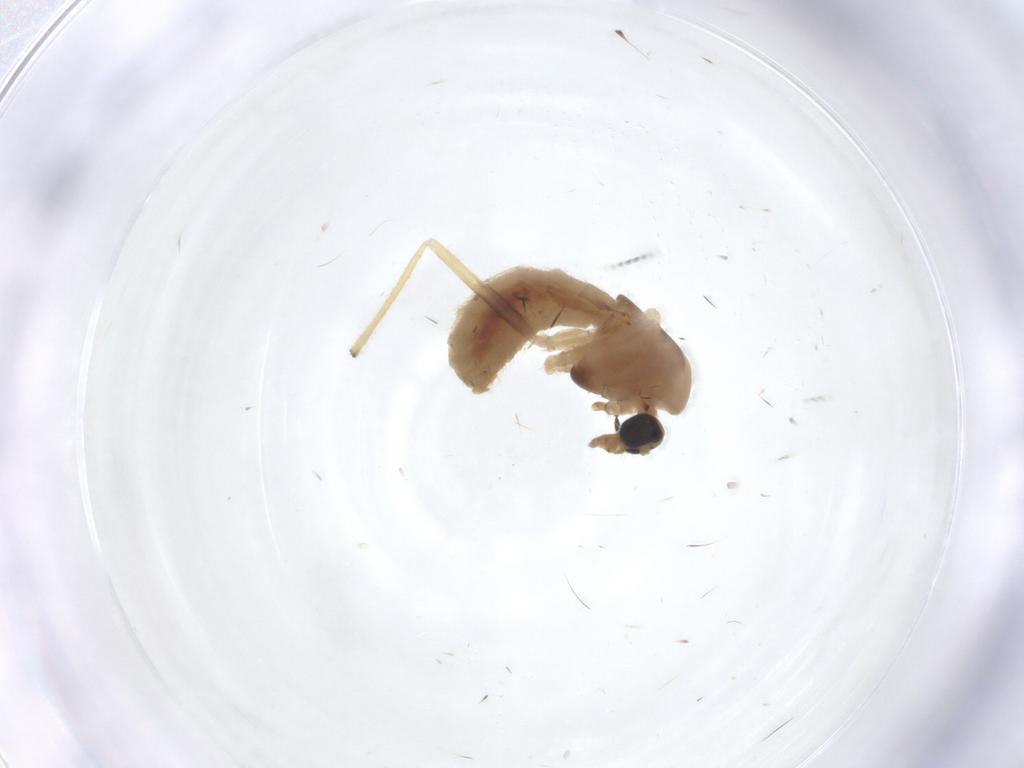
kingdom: Animalia
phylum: Arthropoda
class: Insecta
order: Diptera
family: Chironomidae
